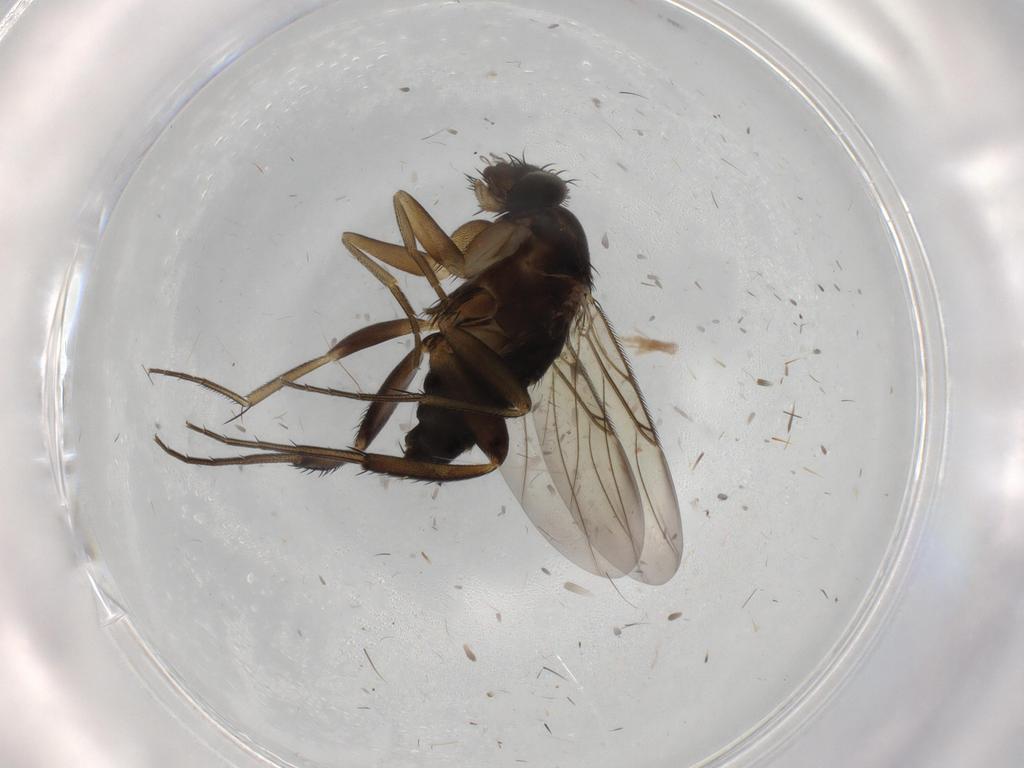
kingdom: Animalia
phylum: Arthropoda
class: Insecta
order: Diptera
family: Phoridae
